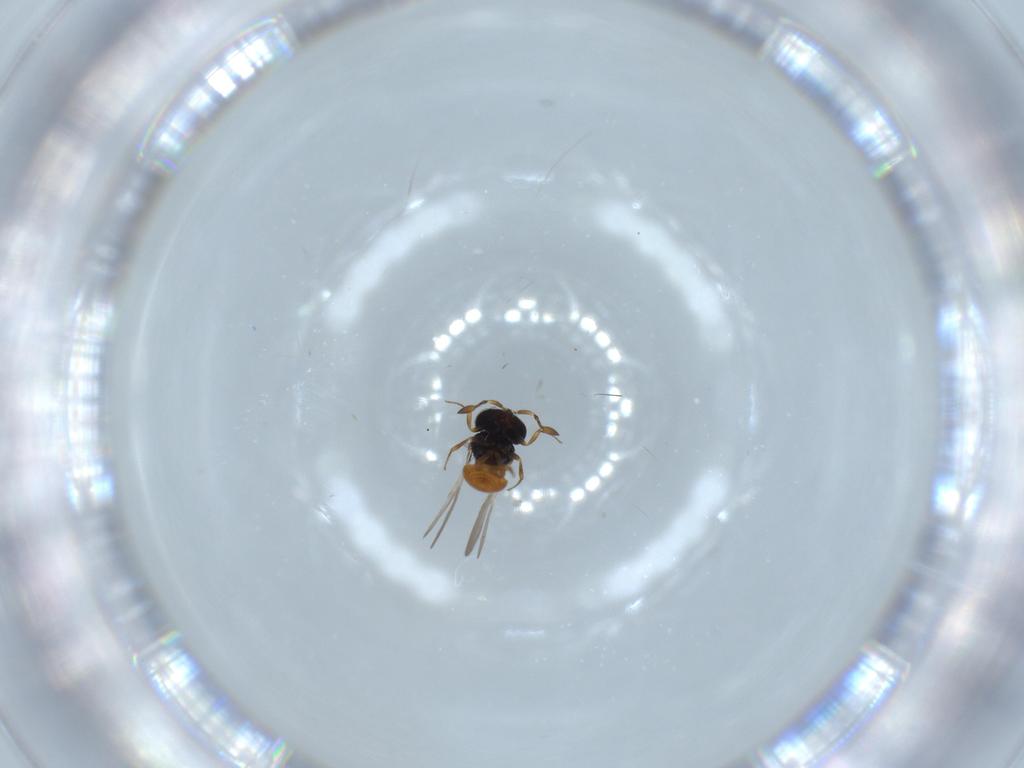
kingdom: Animalia
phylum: Arthropoda
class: Insecta
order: Hymenoptera
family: Scelionidae
